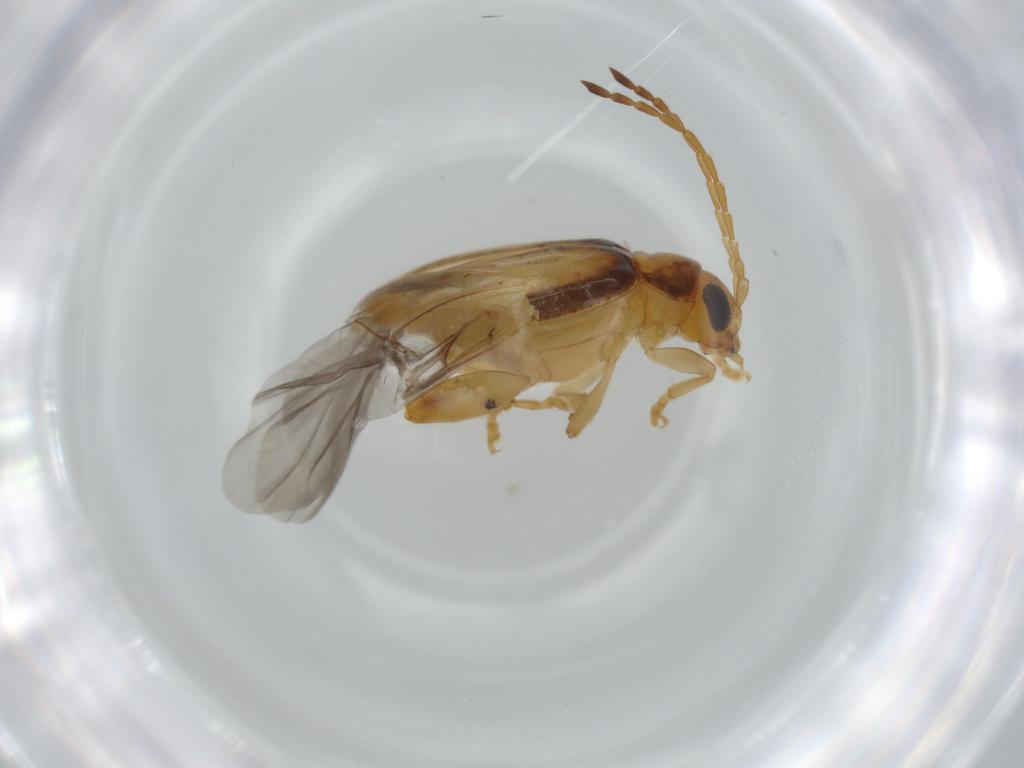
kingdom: Animalia
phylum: Arthropoda
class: Insecta
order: Coleoptera
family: Chrysomelidae
